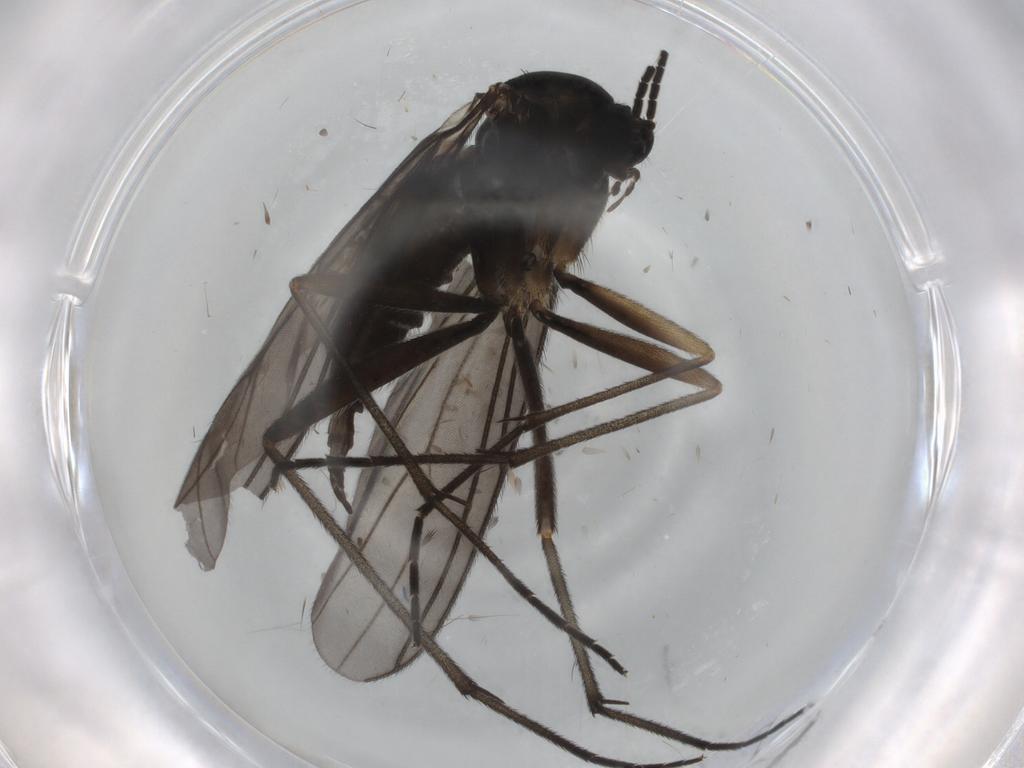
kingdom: Animalia
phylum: Arthropoda
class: Insecta
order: Diptera
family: Sciaridae
